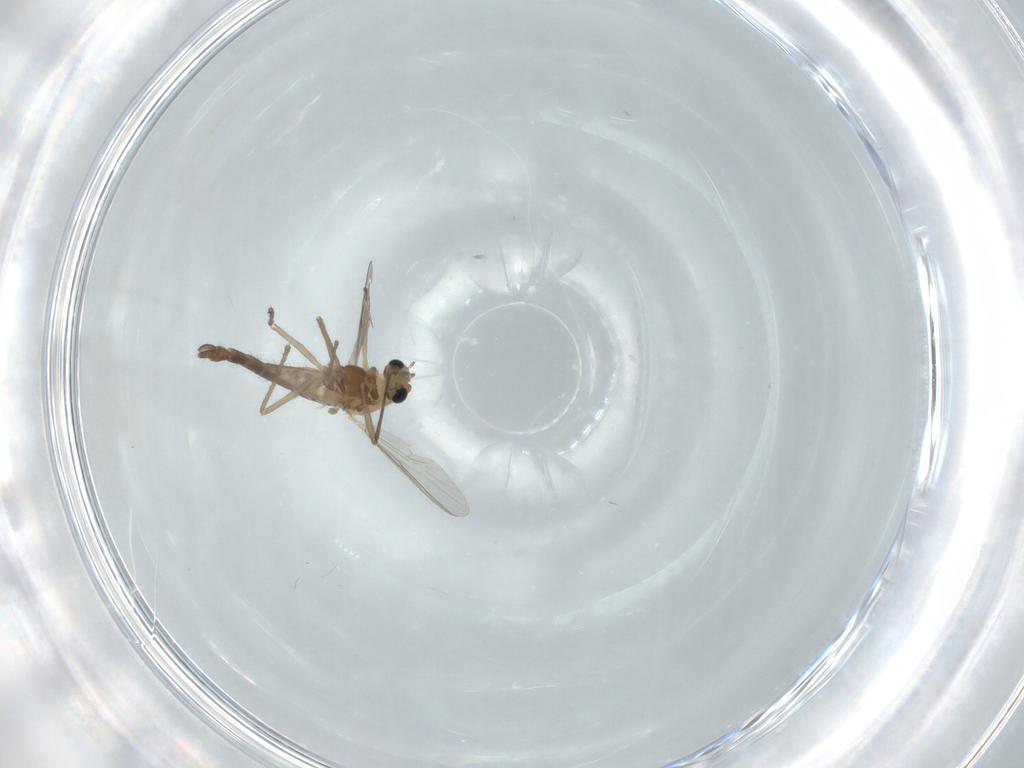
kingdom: Animalia
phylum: Arthropoda
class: Insecta
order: Diptera
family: Chironomidae
